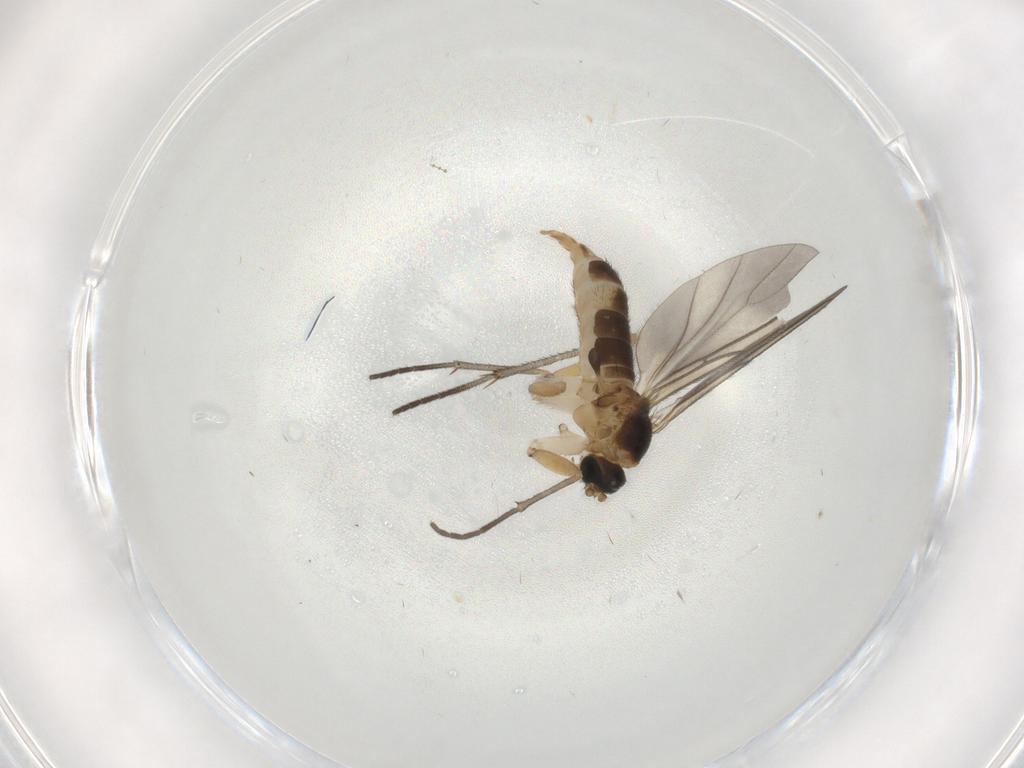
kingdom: Animalia
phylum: Arthropoda
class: Insecta
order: Diptera
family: Sciaridae
